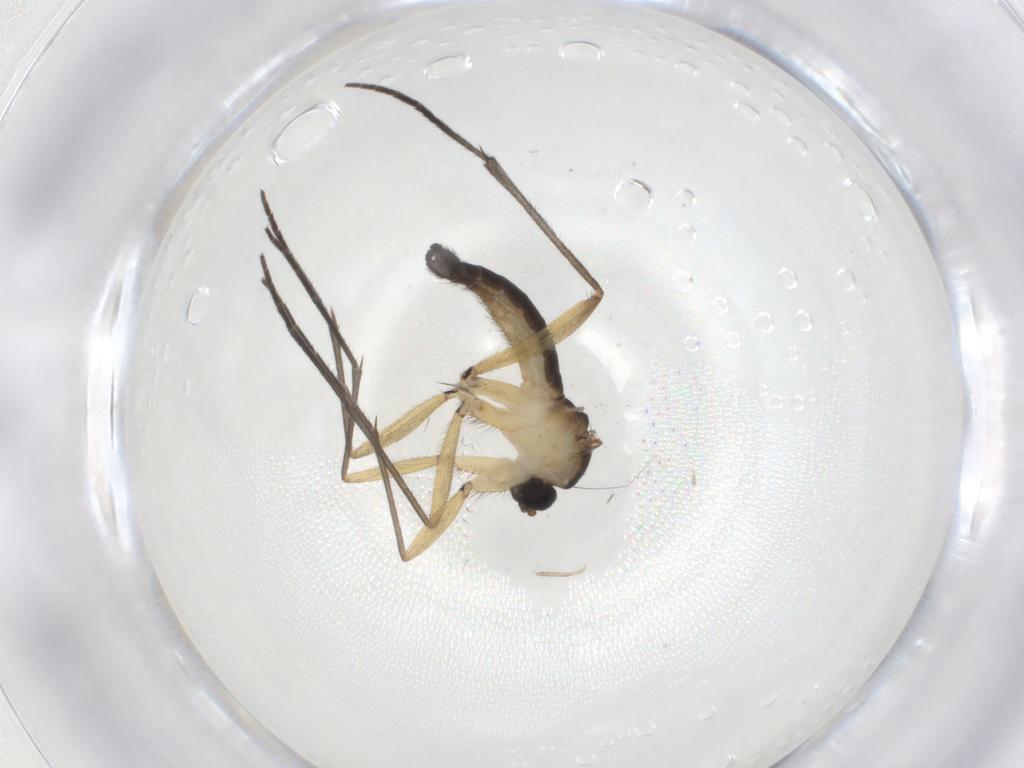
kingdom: Animalia
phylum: Arthropoda
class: Insecta
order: Diptera
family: Sciaridae
